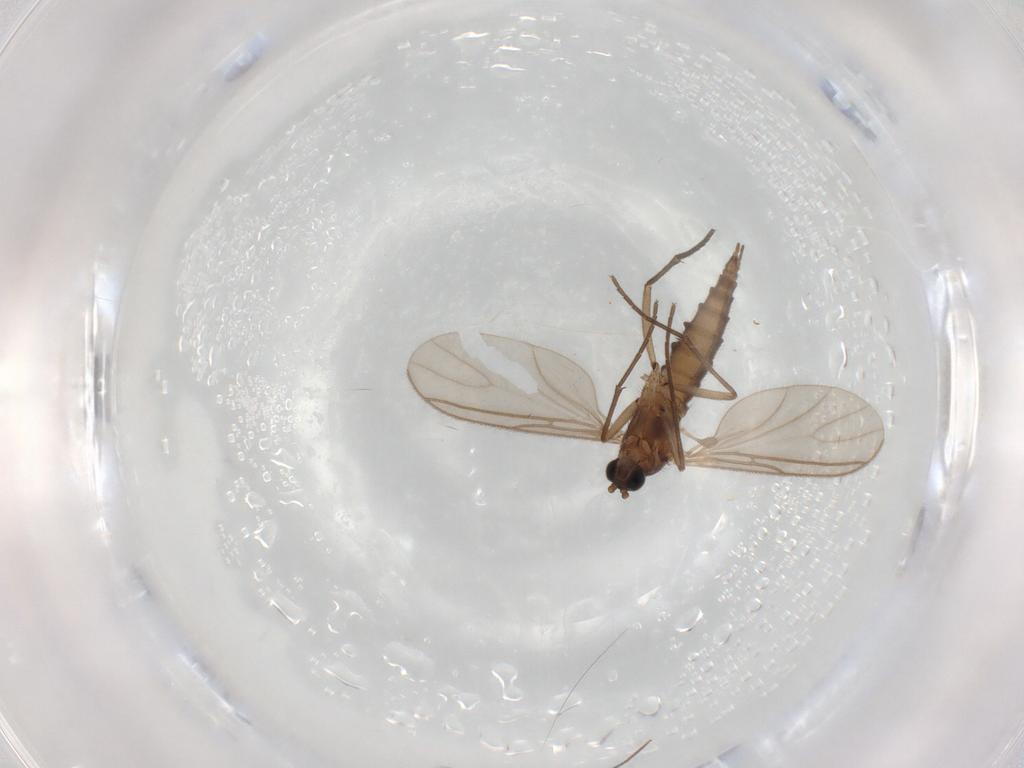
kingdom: Animalia
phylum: Arthropoda
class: Insecta
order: Diptera
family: Sciaridae
